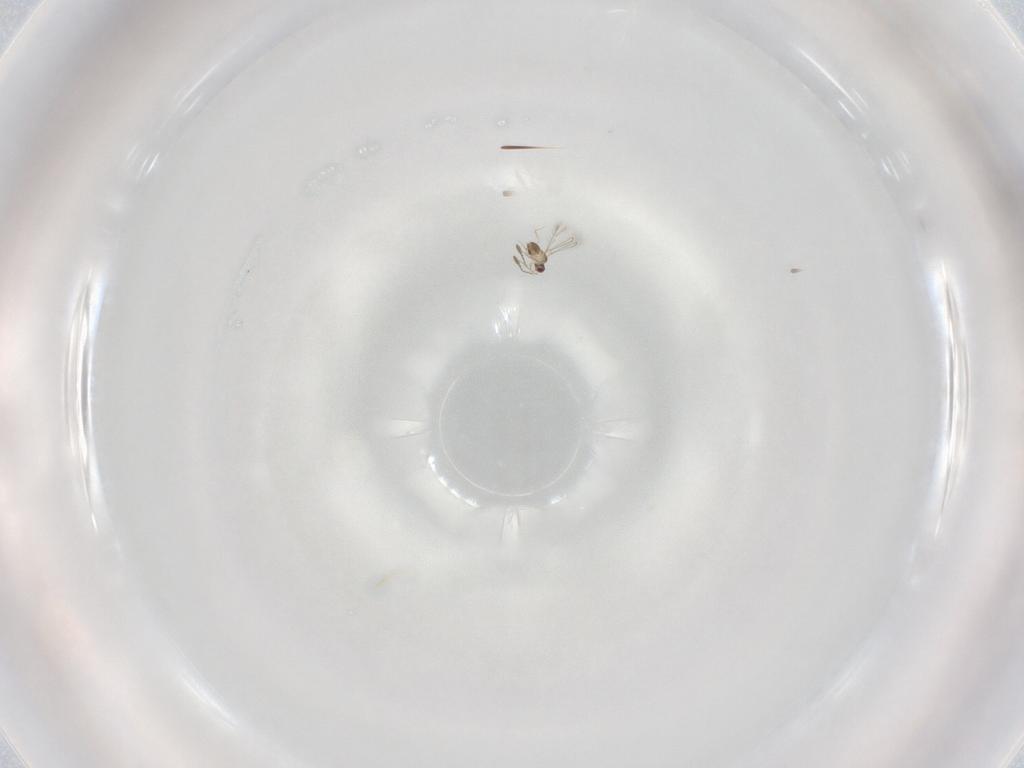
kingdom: Animalia
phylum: Arthropoda
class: Insecta
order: Hymenoptera
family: Mymaridae
